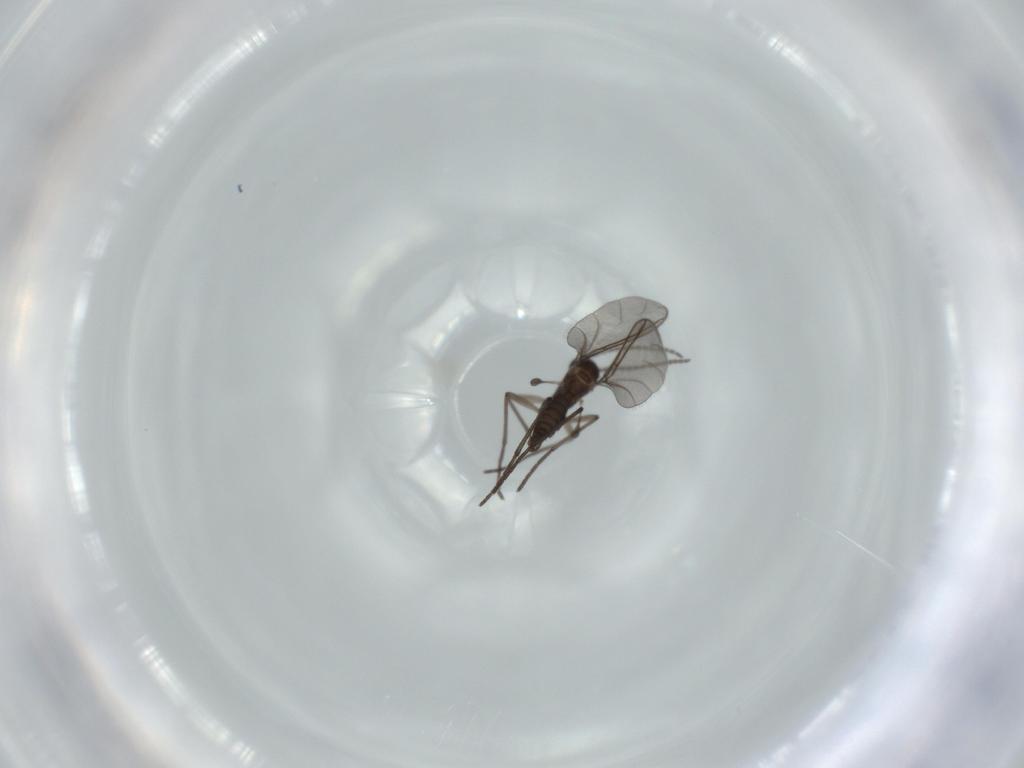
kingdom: Animalia
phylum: Arthropoda
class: Insecta
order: Diptera
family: Sciaridae
